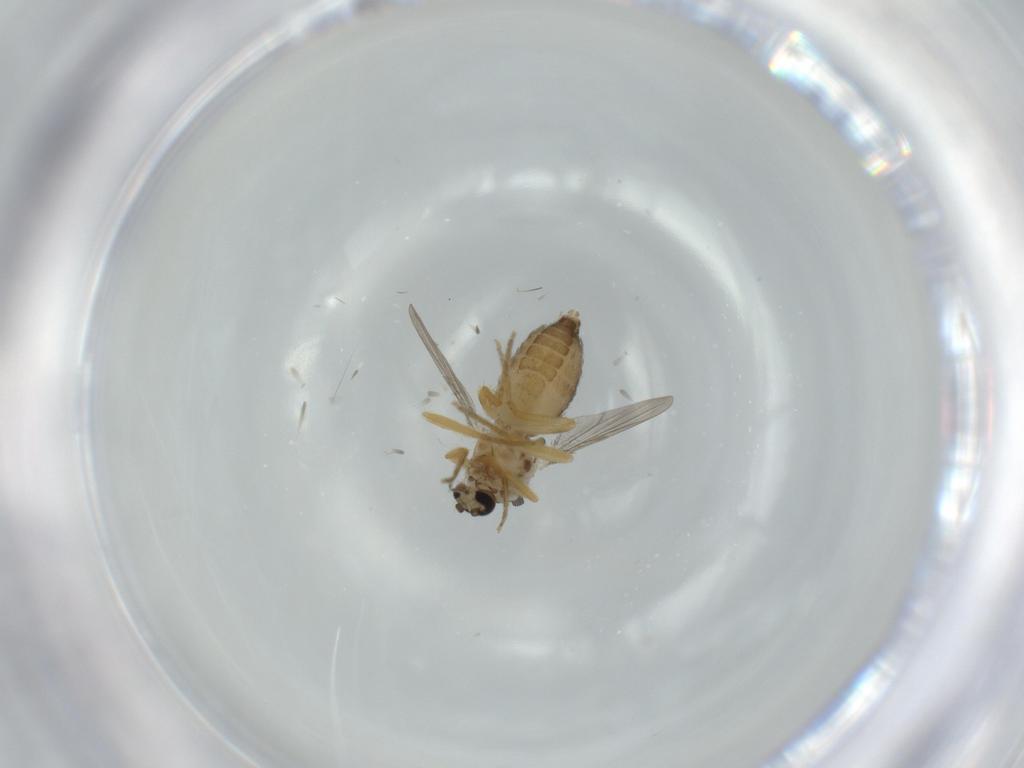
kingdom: Animalia
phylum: Arthropoda
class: Insecta
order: Diptera
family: Ceratopogonidae
